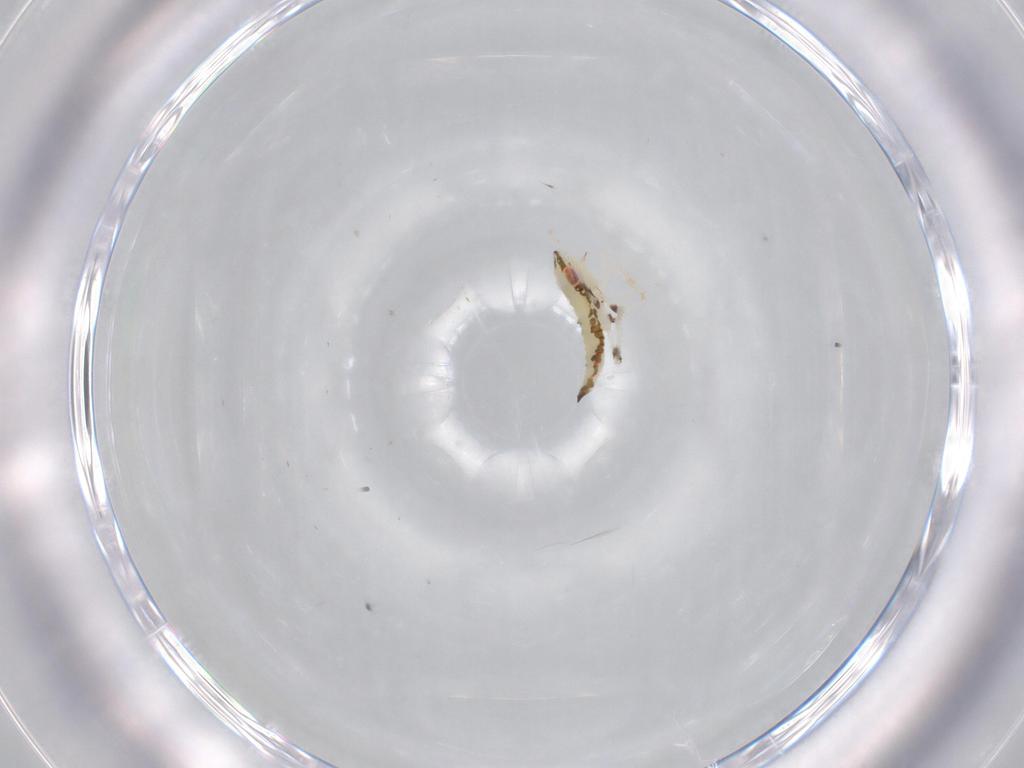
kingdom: Animalia
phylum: Arthropoda
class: Insecta
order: Hemiptera
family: Cicadellidae
